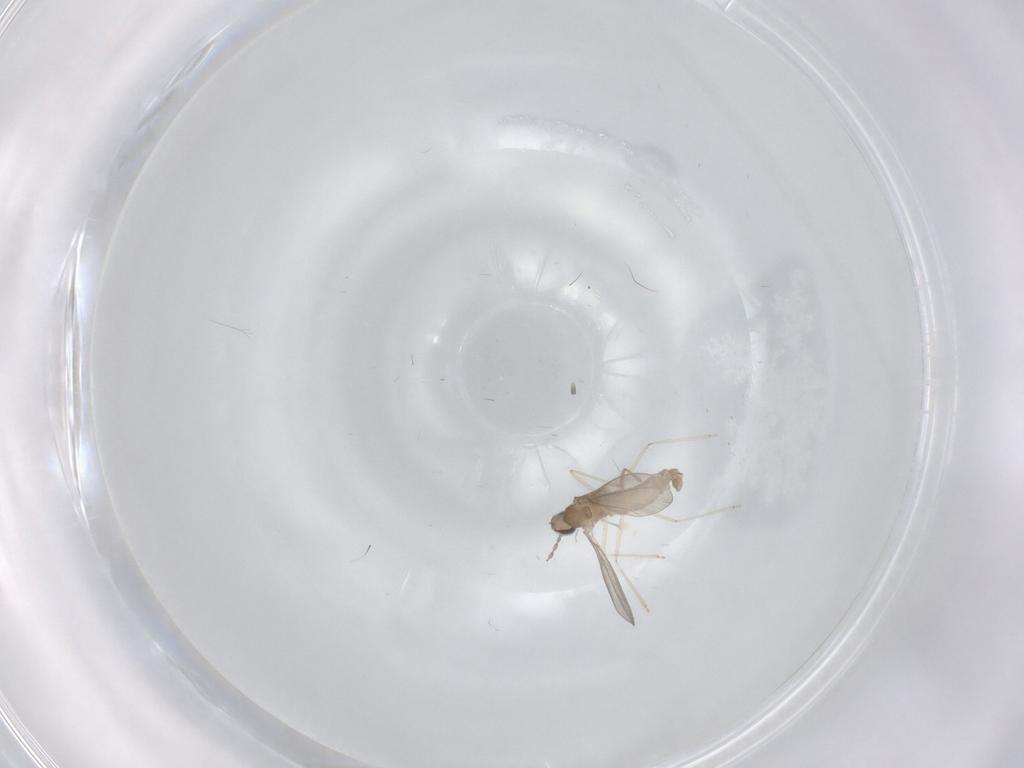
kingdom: Animalia
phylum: Arthropoda
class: Insecta
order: Diptera
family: Cecidomyiidae
